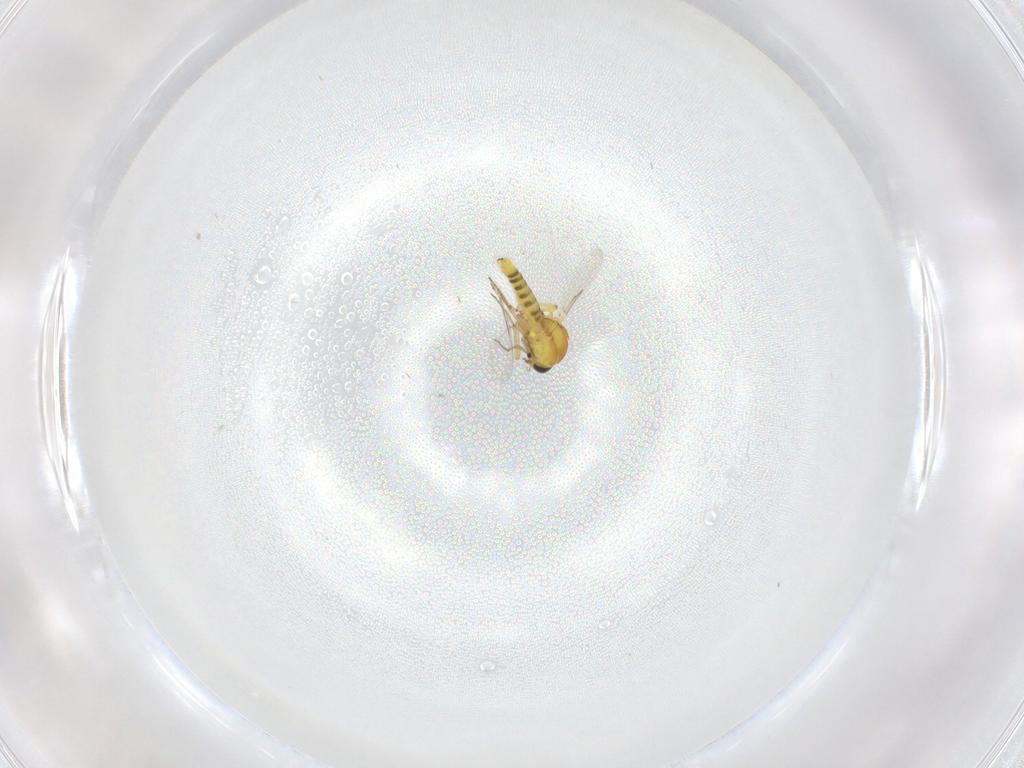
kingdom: Animalia
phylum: Arthropoda
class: Insecta
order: Diptera
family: Ceratopogonidae
